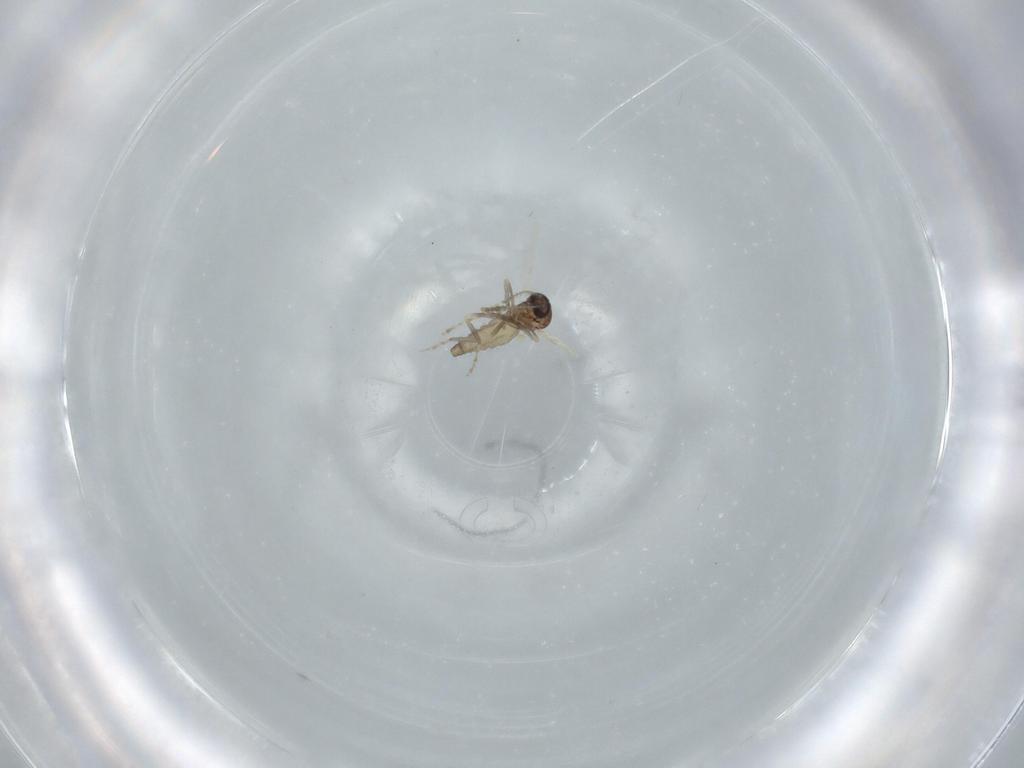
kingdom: Animalia
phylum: Arthropoda
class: Insecta
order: Diptera
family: Ceratopogonidae
